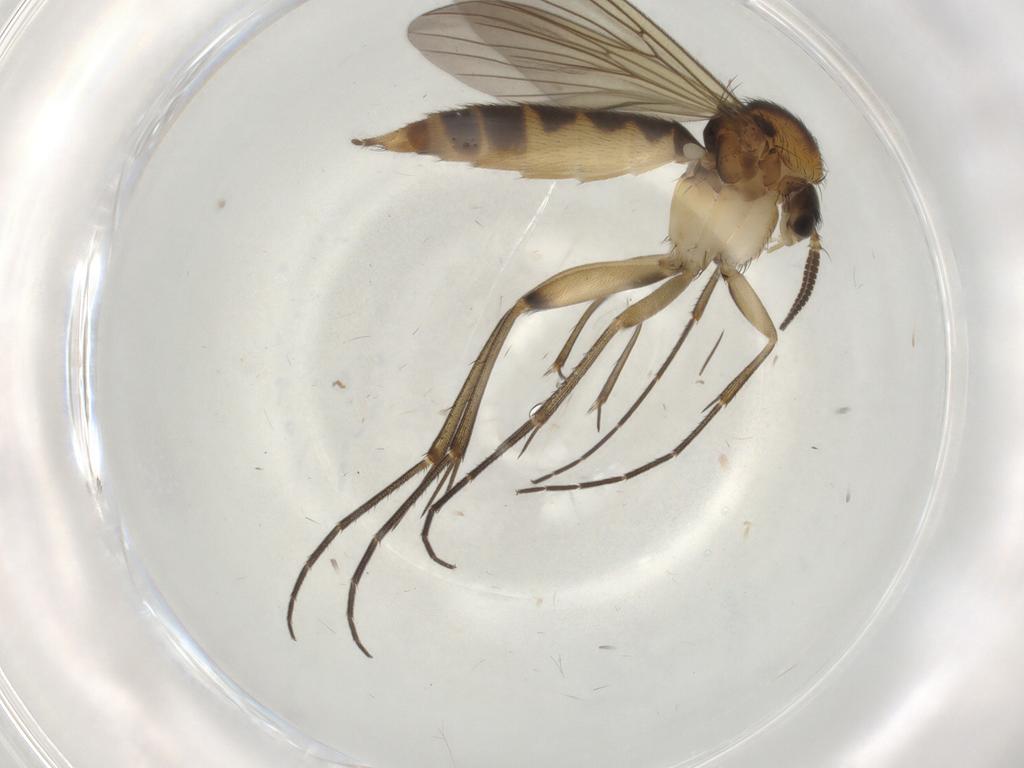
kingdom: Animalia
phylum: Arthropoda
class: Insecta
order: Diptera
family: Mycetophilidae
